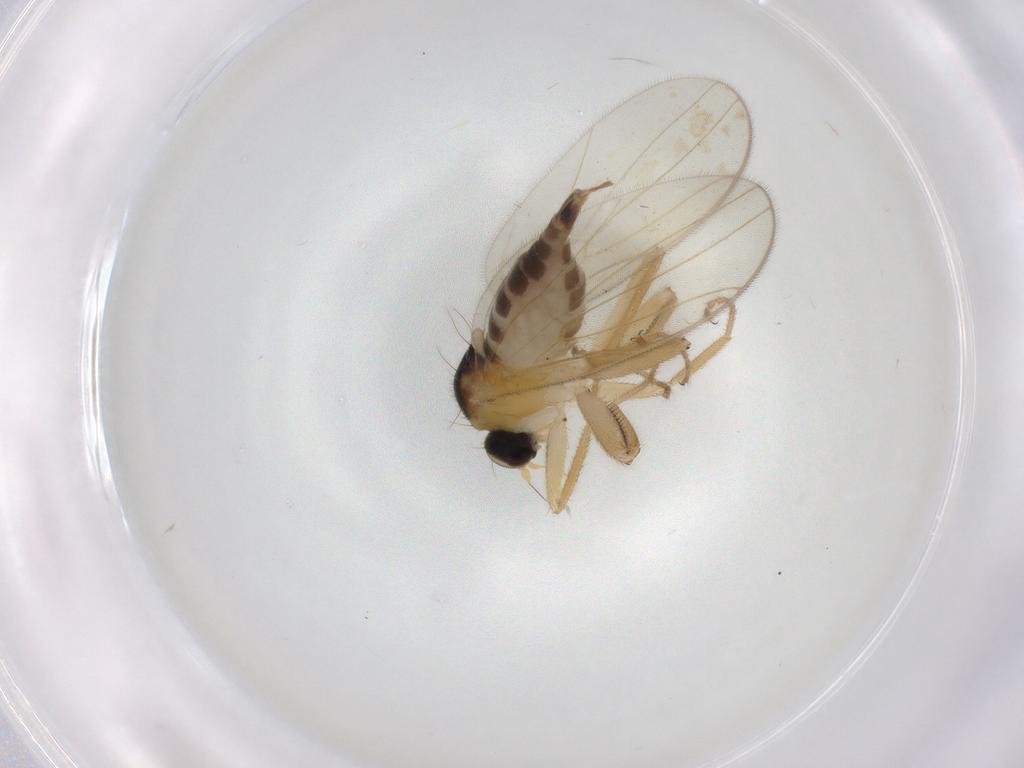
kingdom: Animalia
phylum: Arthropoda
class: Insecta
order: Diptera
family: Hybotidae
